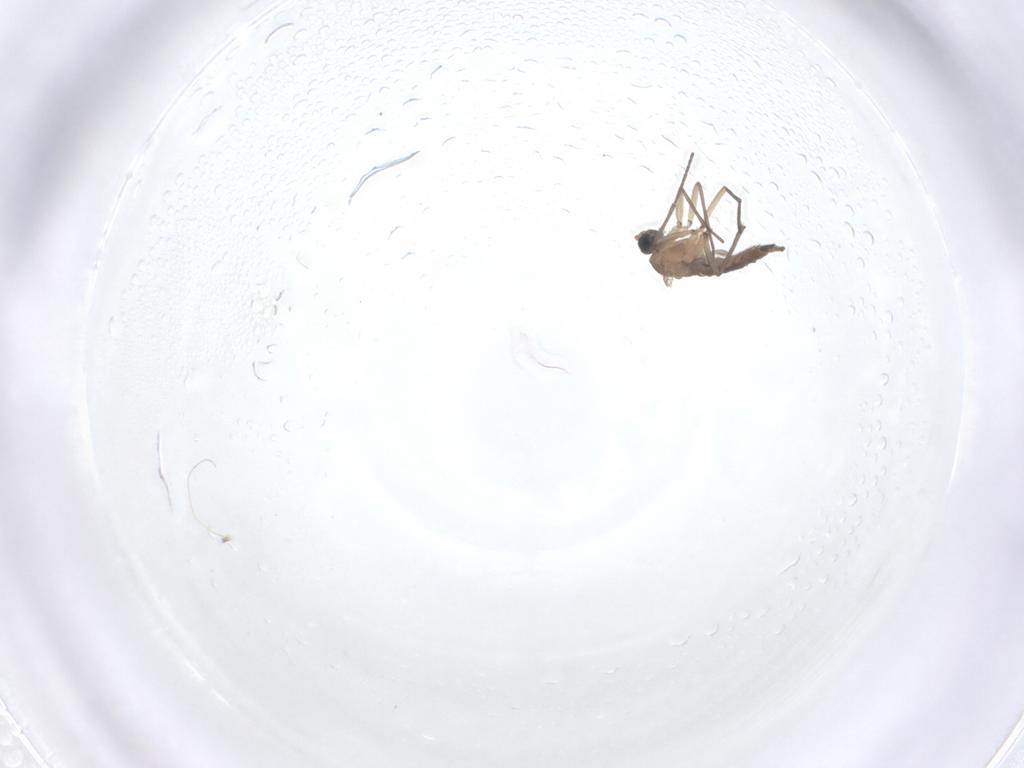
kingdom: Animalia
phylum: Arthropoda
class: Insecta
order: Diptera
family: Sciaridae
